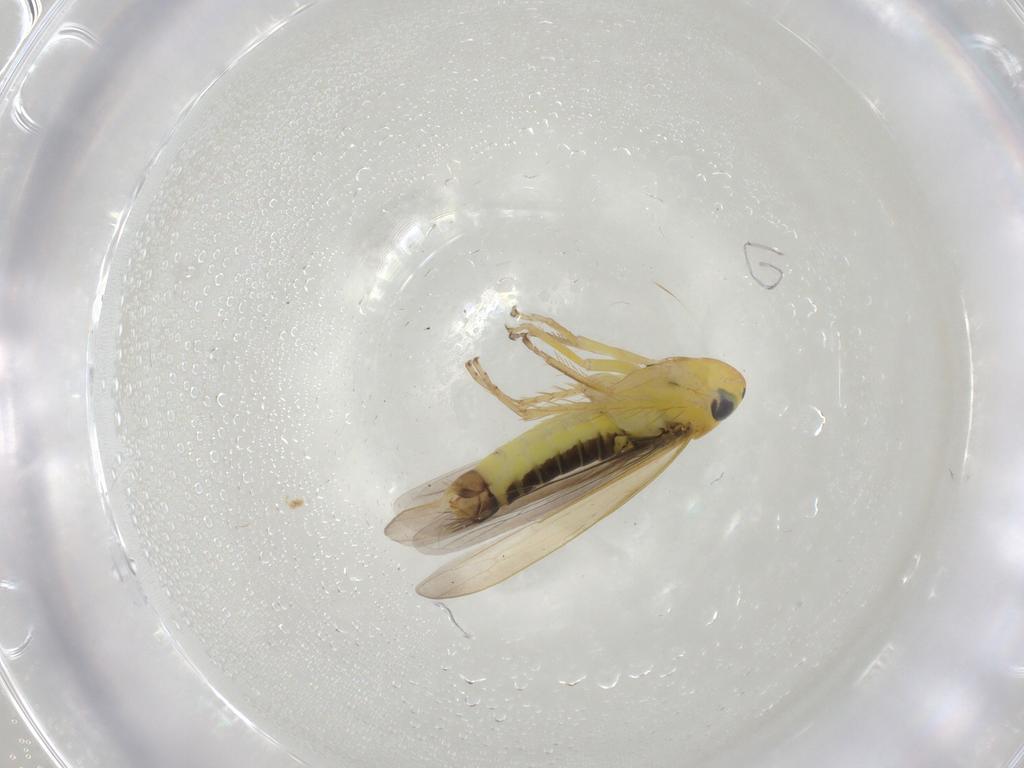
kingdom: Animalia
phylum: Arthropoda
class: Insecta
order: Hemiptera
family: Cicadellidae
